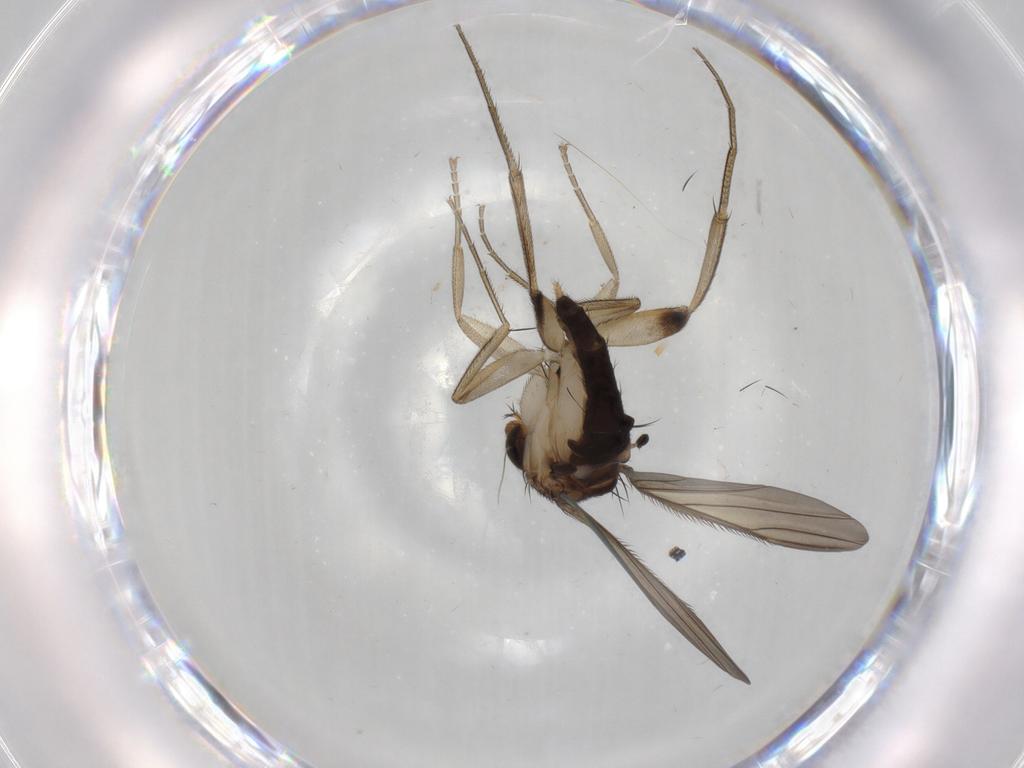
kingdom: Animalia
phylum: Arthropoda
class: Insecta
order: Diptera
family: Phoridae
